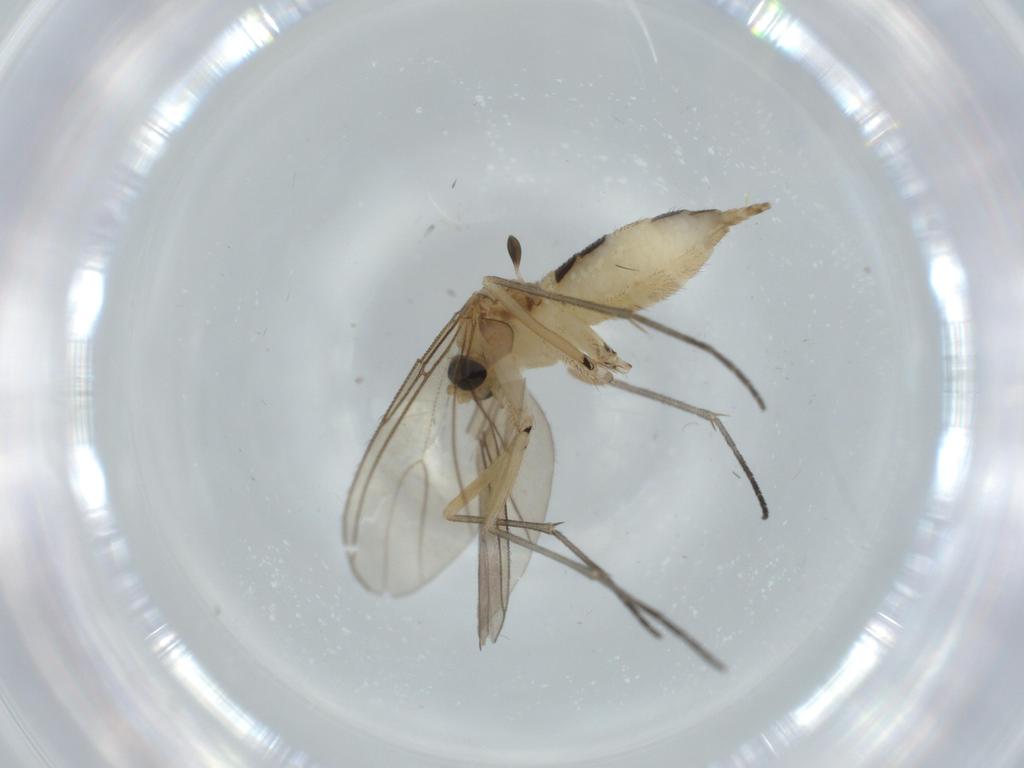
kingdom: Animalia
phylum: Arthropoda
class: Insecta
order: Diptera
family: Sciaridae
